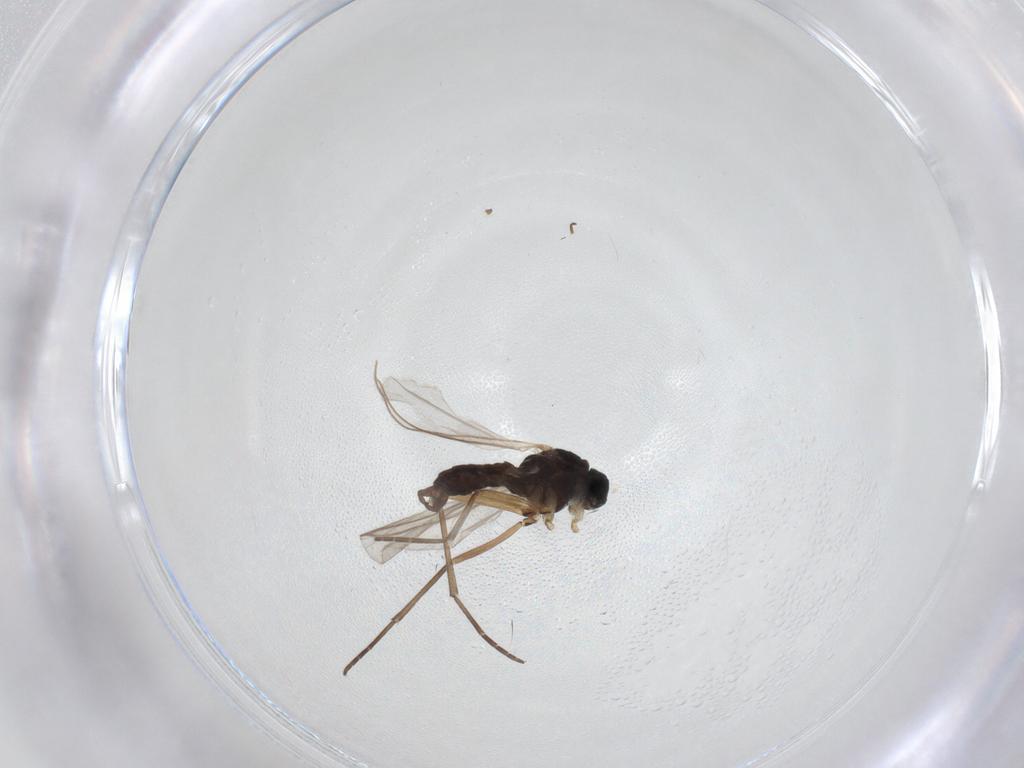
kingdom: Animalia
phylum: Arthropoda
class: Insecta
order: Diptera
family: Sciaridae
